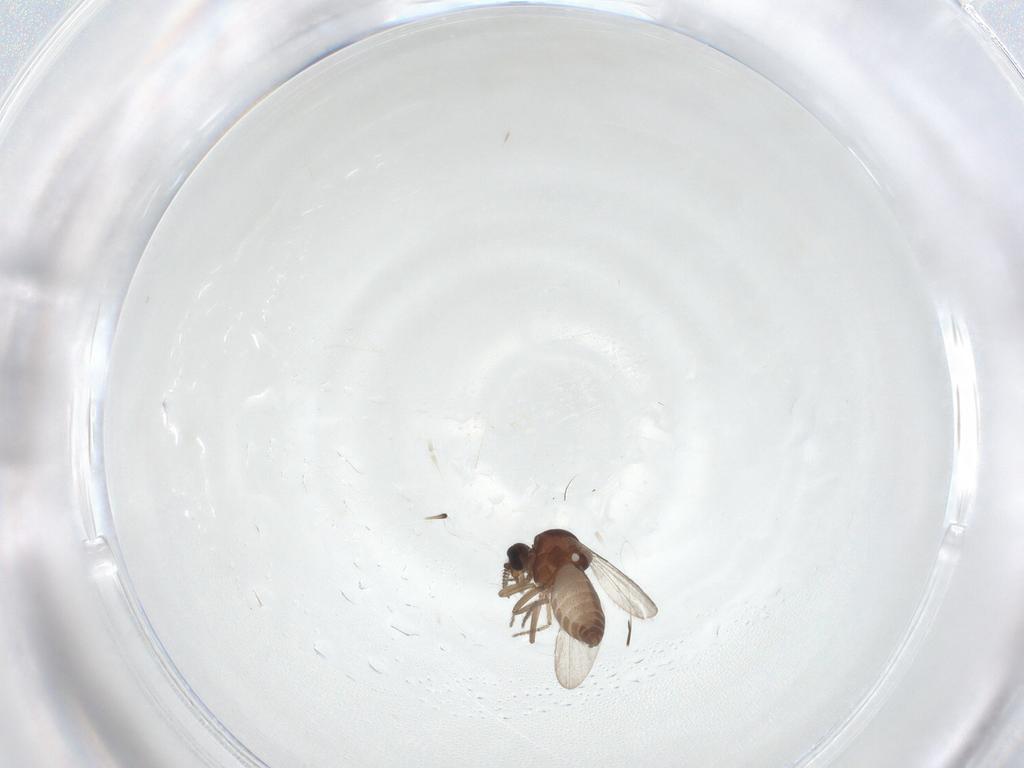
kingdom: Animalia
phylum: Arthropoda
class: Insecta
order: Diptera
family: Ceratopogonidae
